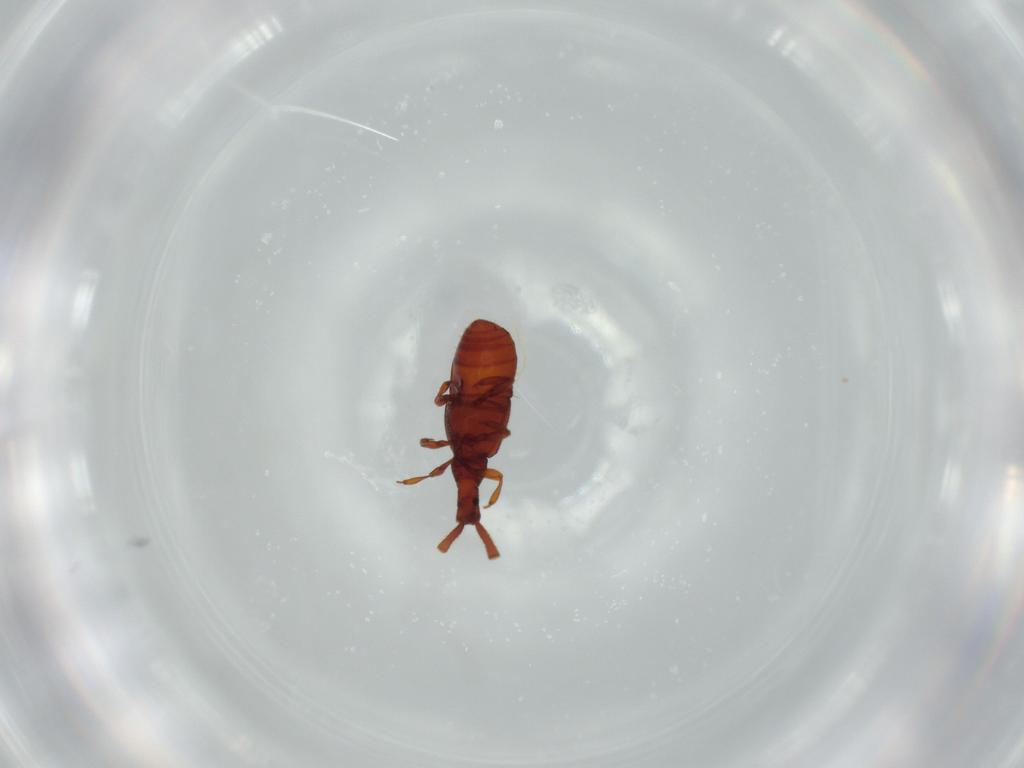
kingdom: Animalia
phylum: Arthropoda
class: Insecta
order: Coleoptera
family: Staphylinidae
